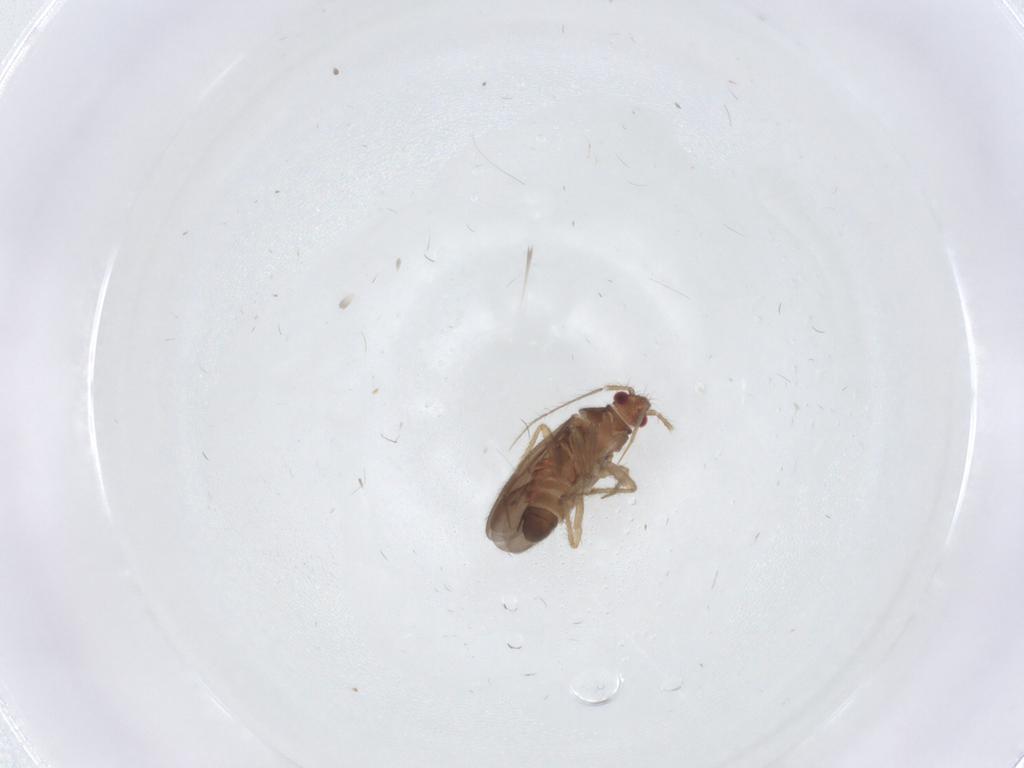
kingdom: Animalia
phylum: Arthropoda
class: Insecta
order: Hemiptera
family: Ceratocombidae
